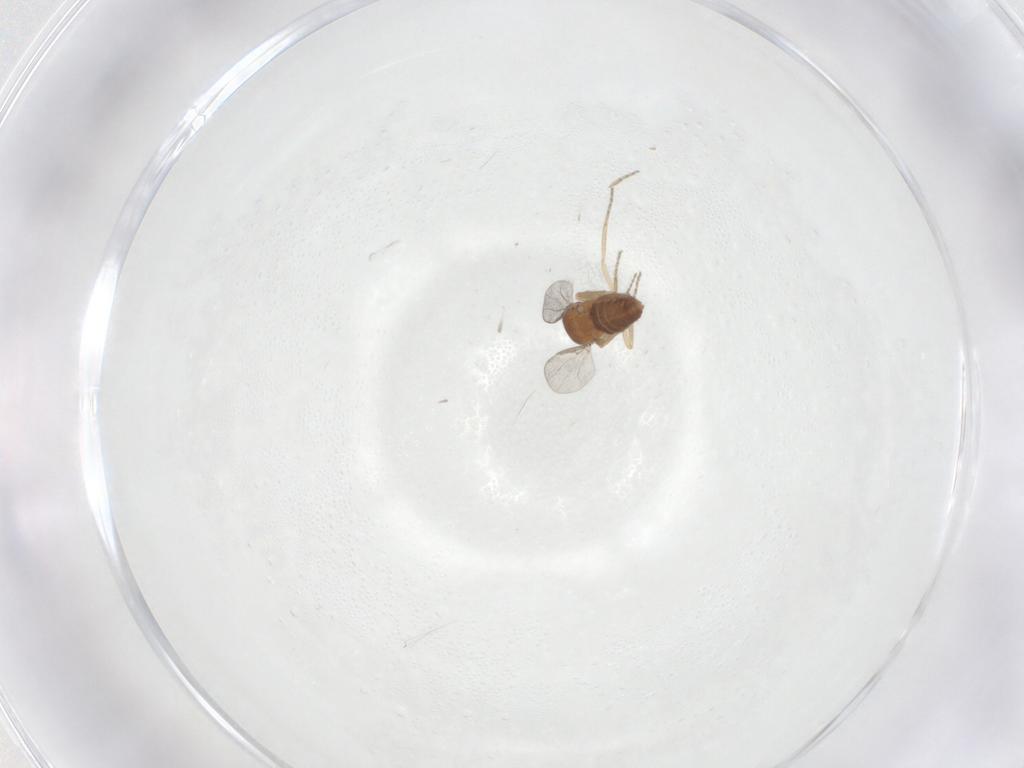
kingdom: Animalia
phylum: Arthropoda
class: Insecta
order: Diptera
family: Ceratopogonidae
